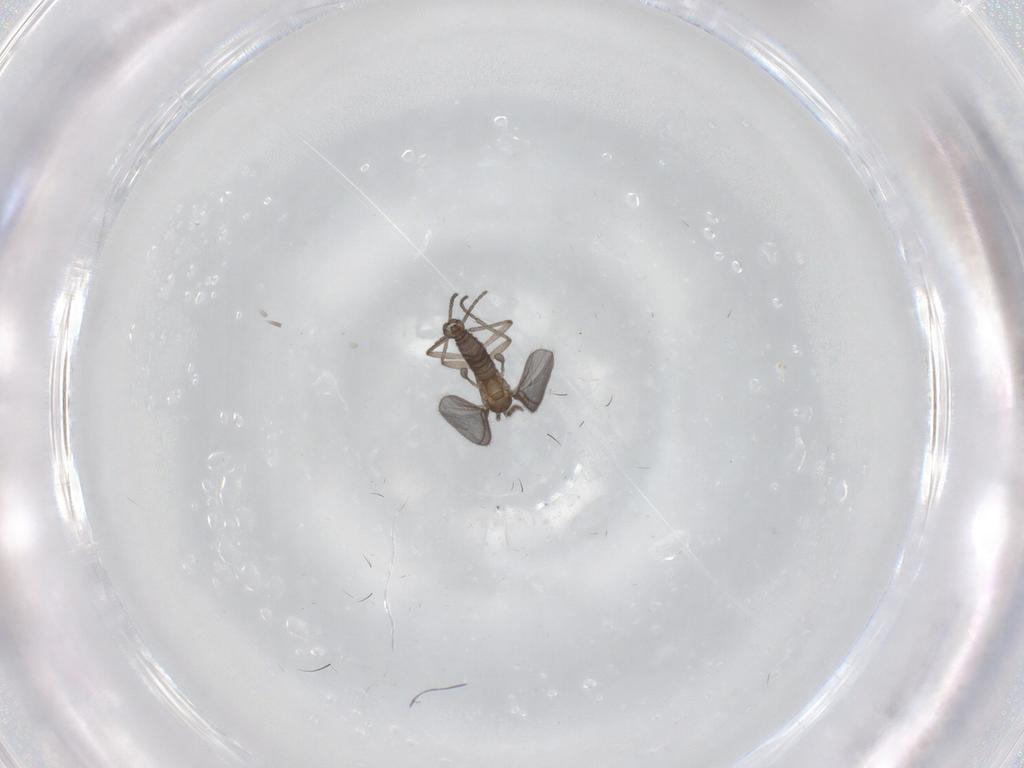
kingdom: Animalia
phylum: Arthropoda
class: Insecta
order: Diptera
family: Sciaridae
